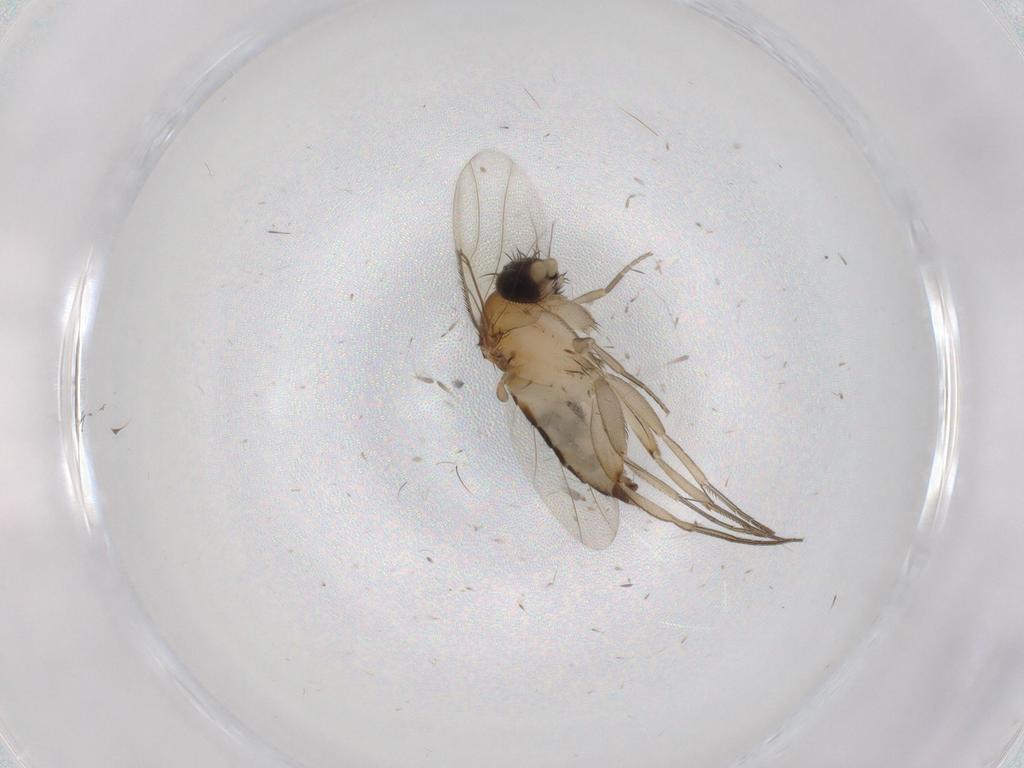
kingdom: Animalia
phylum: Arthropoda
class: Insecta
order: Diptera
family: Phoridae
